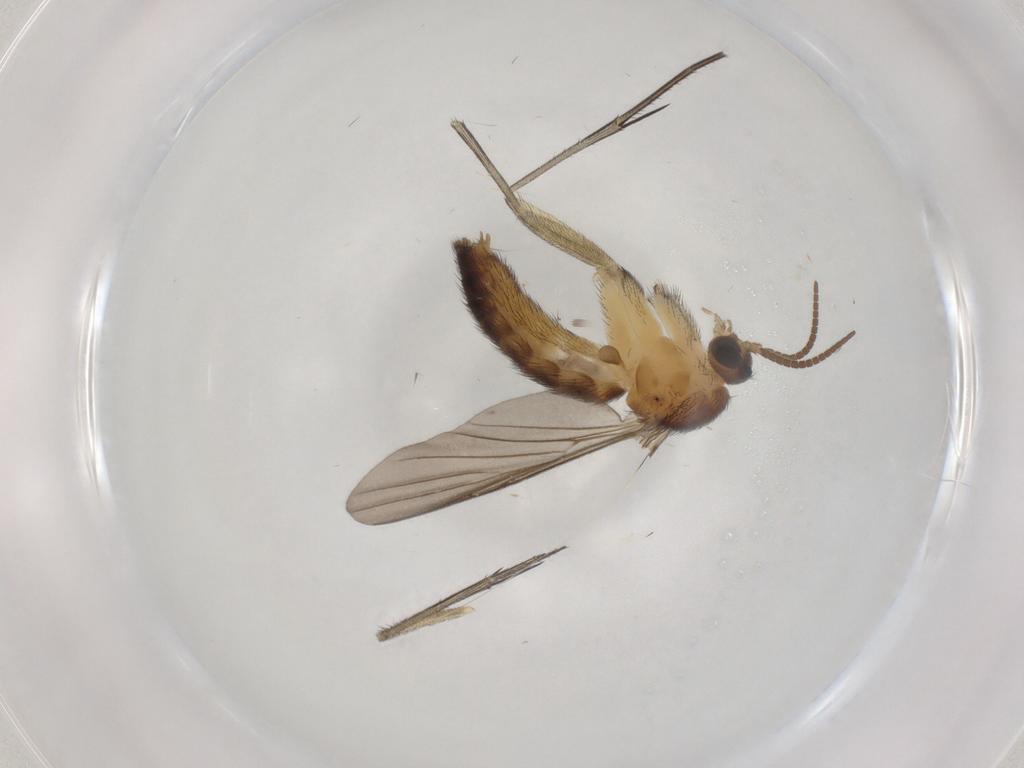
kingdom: Animalia
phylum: Arthropoda
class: Insecta
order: Diptera
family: Keroplatidae
